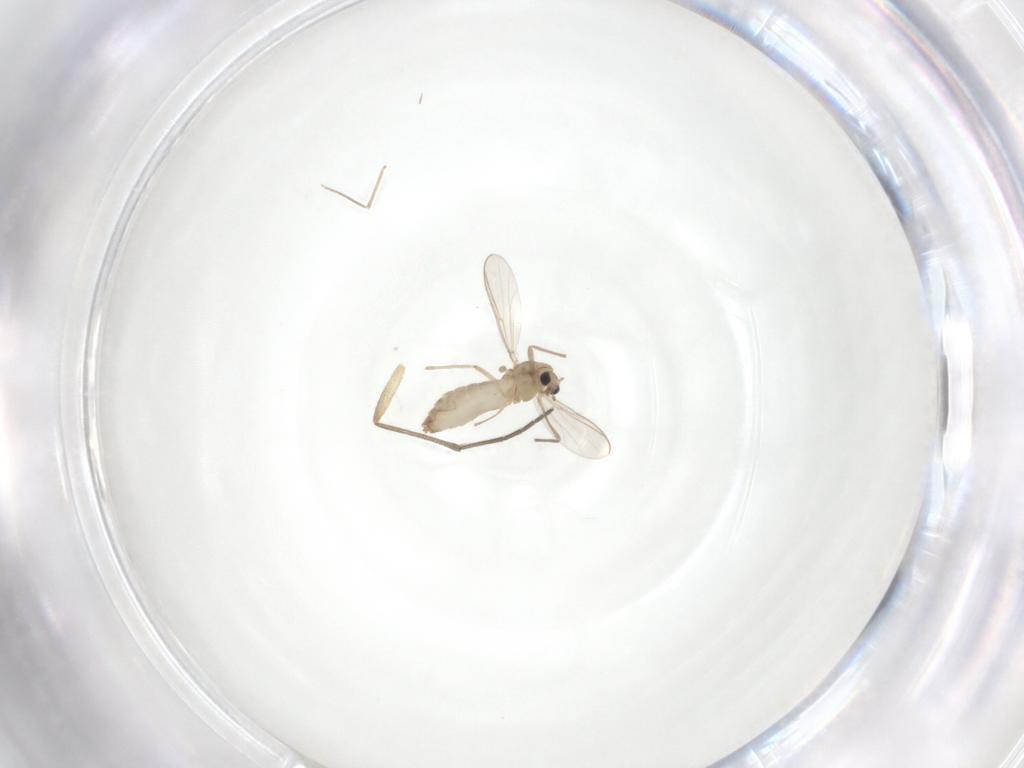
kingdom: Animalia
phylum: Arthropoda
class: Insecta
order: Diptera
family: Chironomidae
